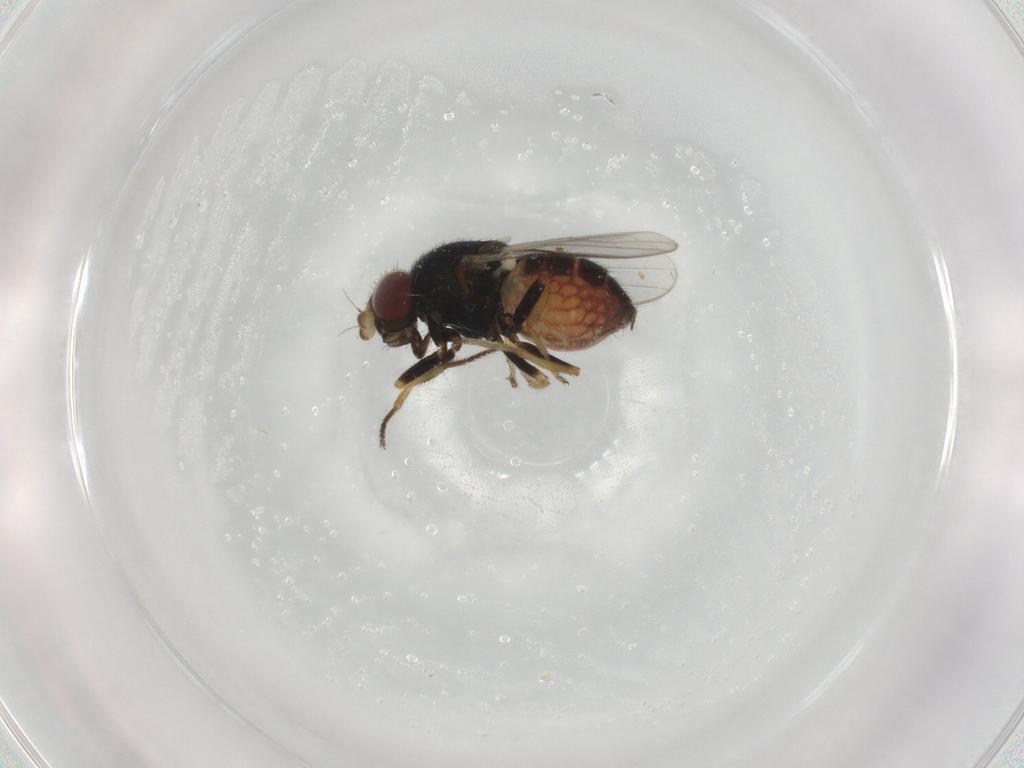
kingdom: Animalia
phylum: Arthropoda
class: Insecta
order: Diptera
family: Chloropidae
